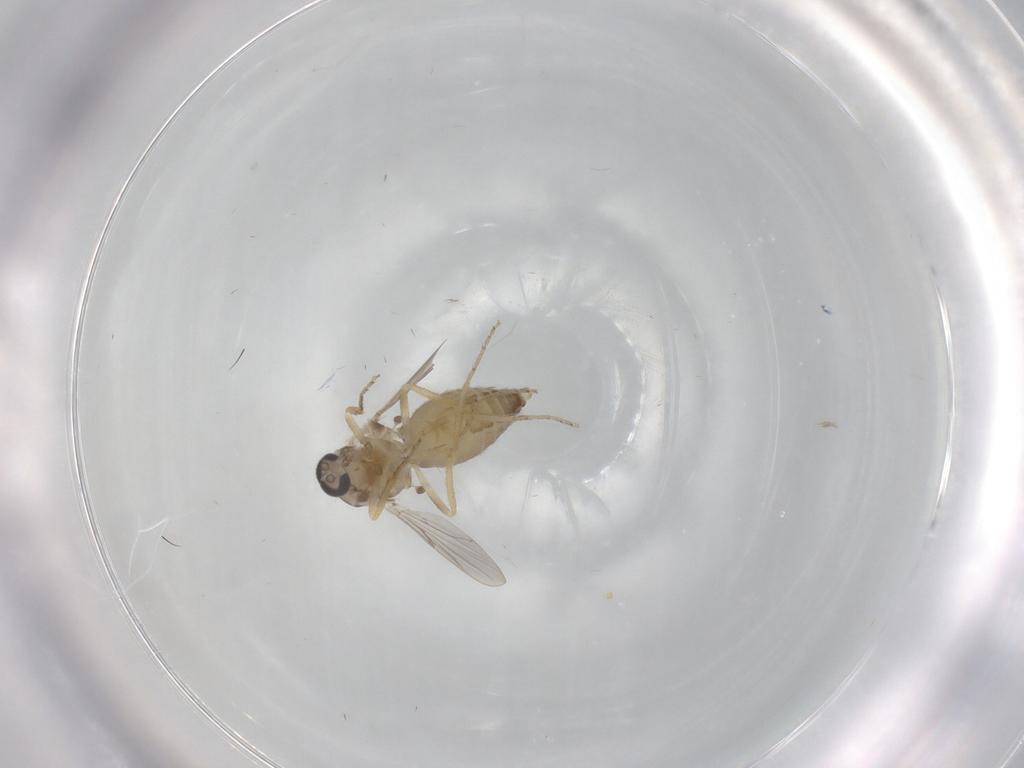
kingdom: Animalia
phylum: Arthropoda
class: Insecta
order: Diptera
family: Ceratopogonidae
